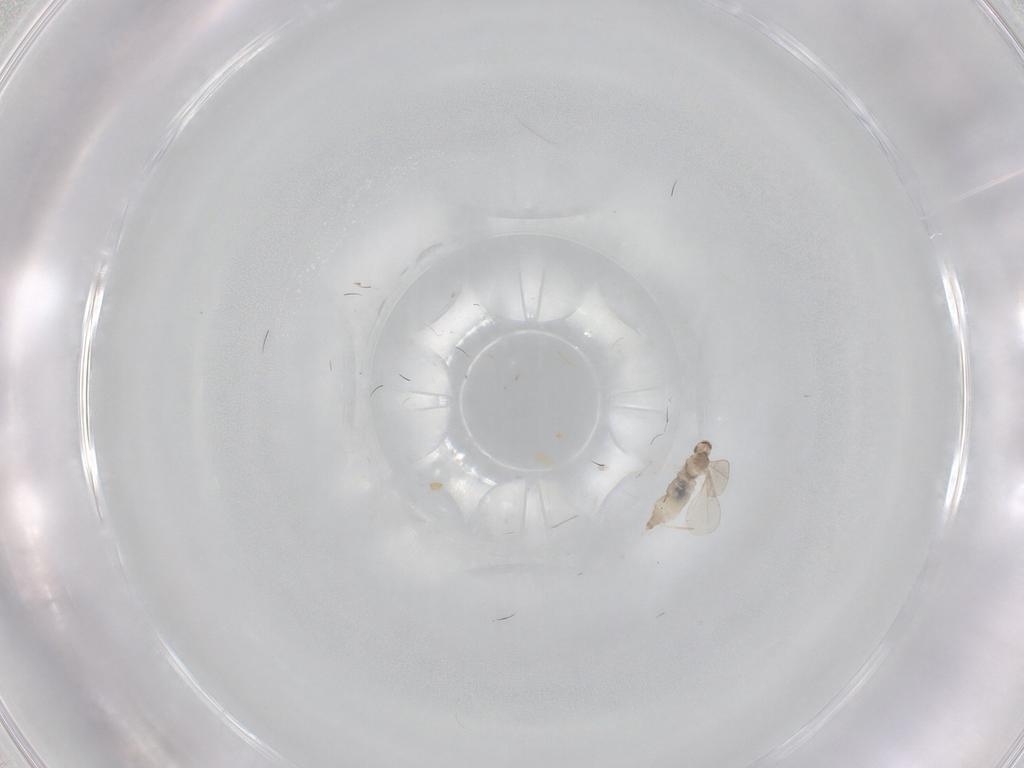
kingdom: Animalia
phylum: Arthropoda
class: Insecta
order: Diptera
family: Cecidomyiidae
